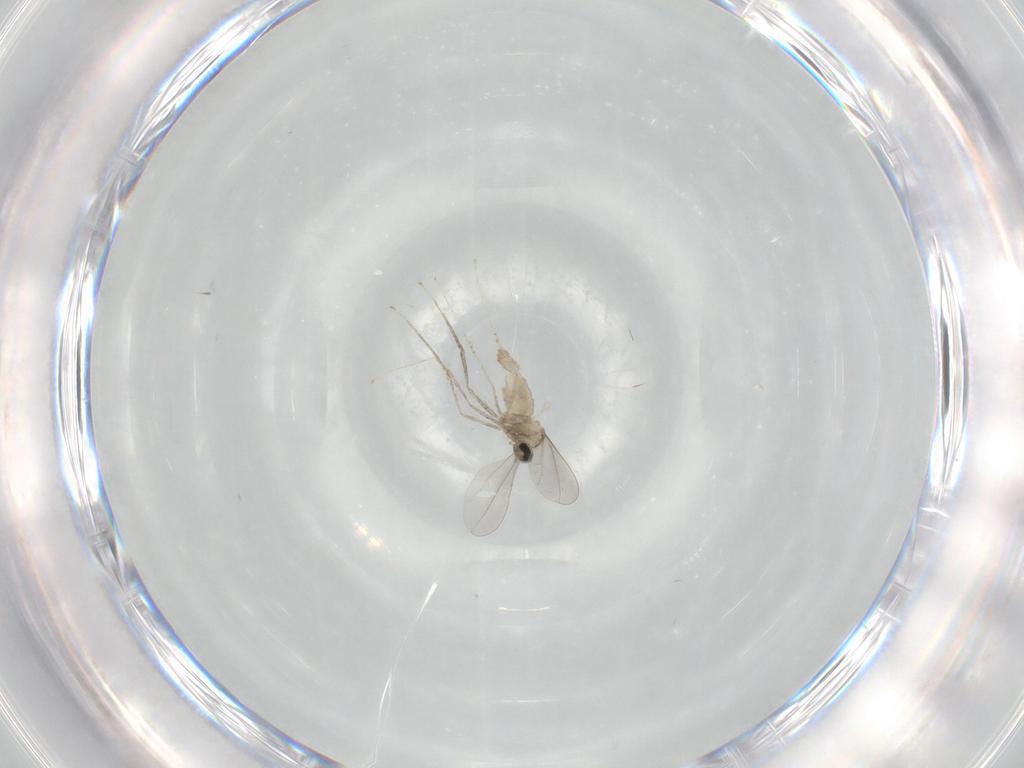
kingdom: Animalia
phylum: Arthropoda
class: Insecta
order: Diptera
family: Cecidomyiidae
